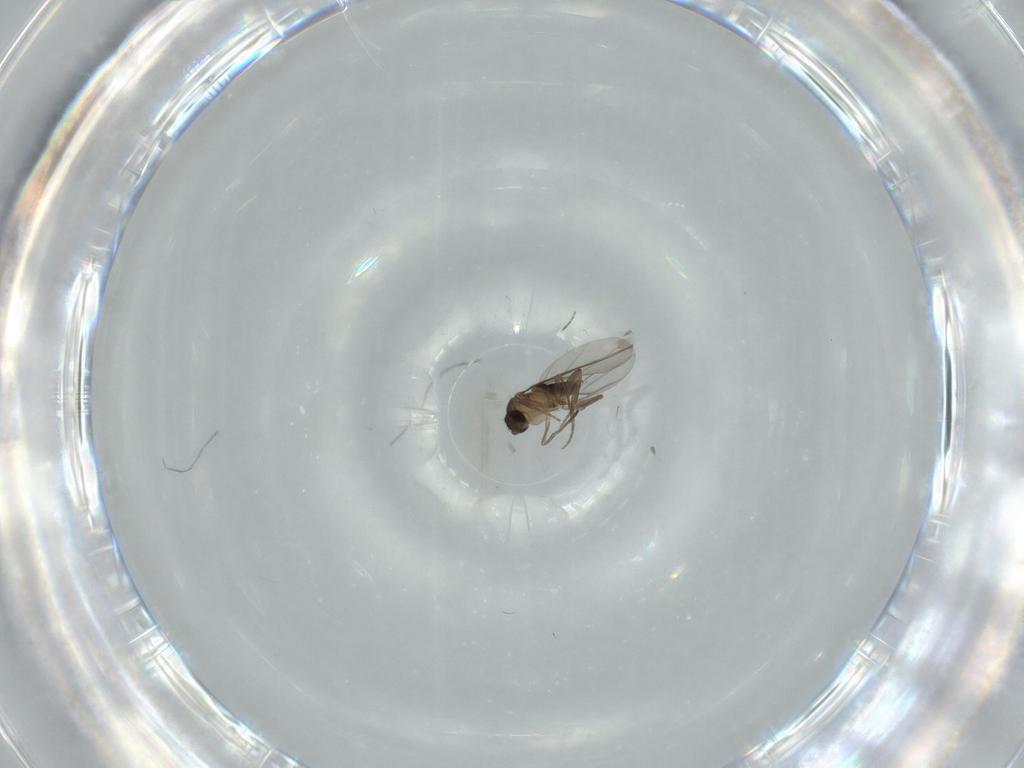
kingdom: Animalia
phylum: Arthropoda
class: Insecta
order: Diptera
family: Phoridae
